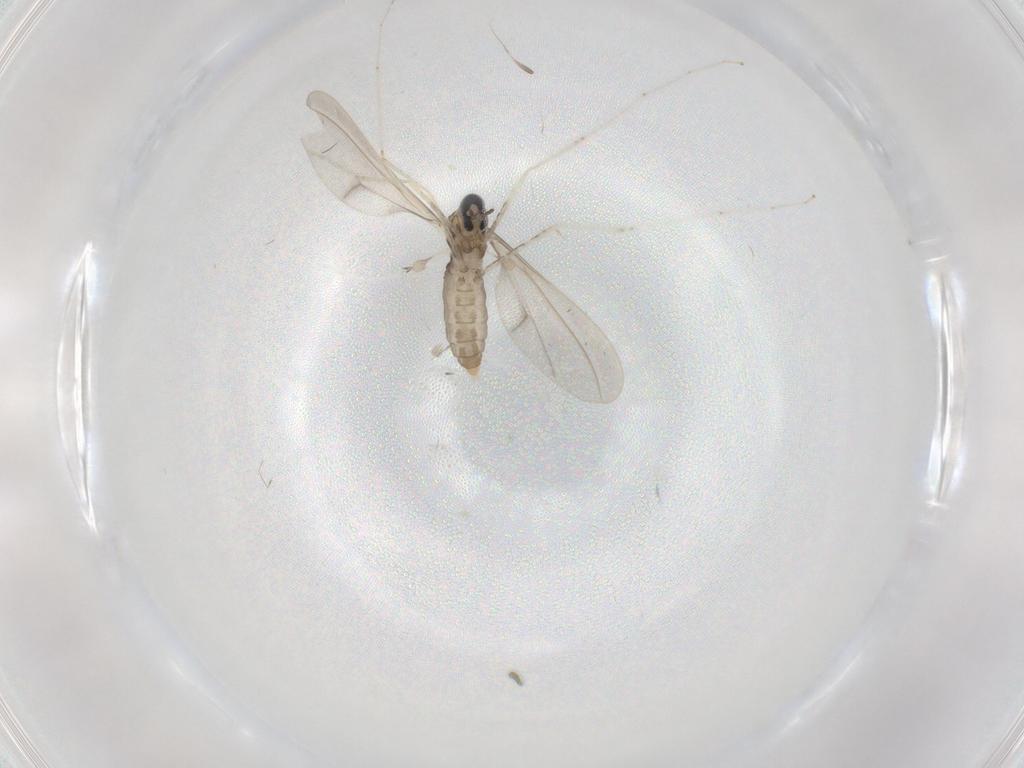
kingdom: Animalia
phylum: Arthropoda
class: Insecta
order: Diptera
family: Cecidomyiidae
